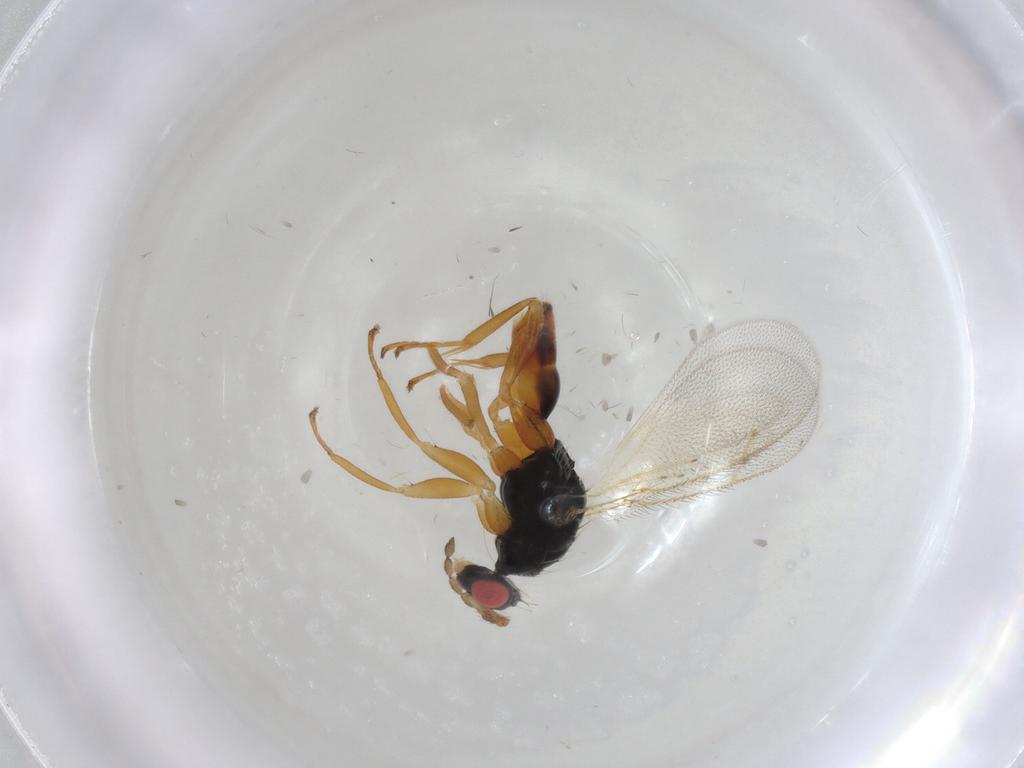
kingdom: Animalia
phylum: Arthropoda
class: Insecta
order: Hymenoptera
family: Eulophidae
